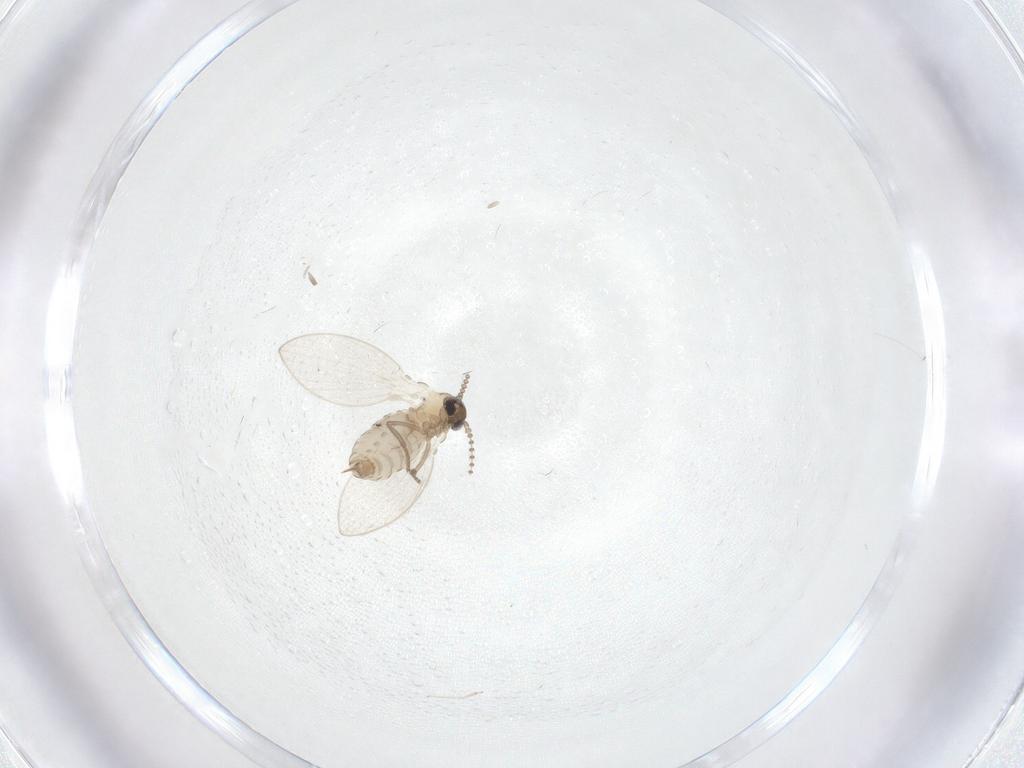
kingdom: Animalia
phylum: Arthropoda
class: Insecta
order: Diptera
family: Psychodidae
